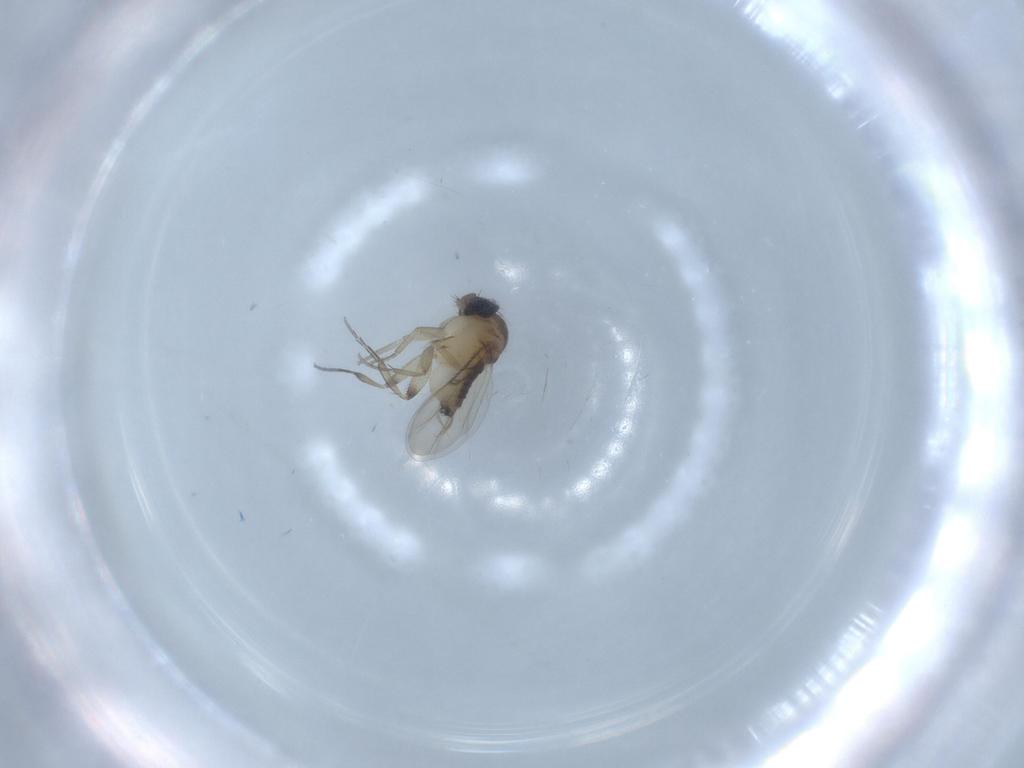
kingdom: Animalia
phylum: Arthropoda
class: Insecta
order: Diptera
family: Phoridae
